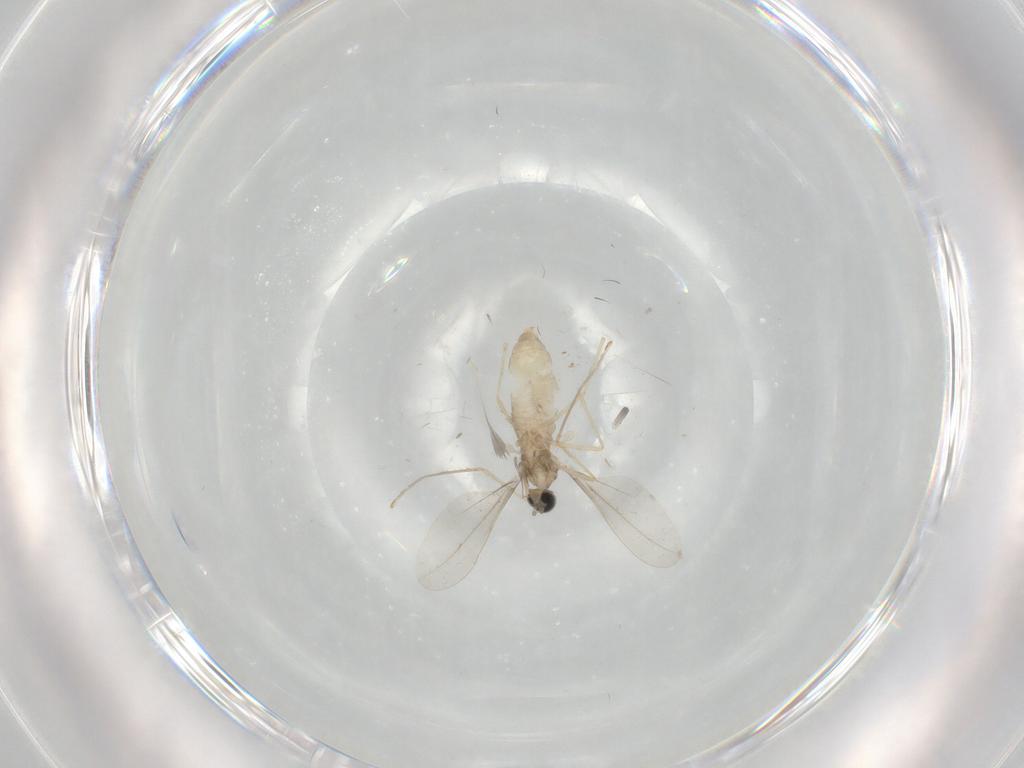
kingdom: Animalia
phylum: Arthropoda
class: Insecta
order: Diptera
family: Cecidomyiidae
